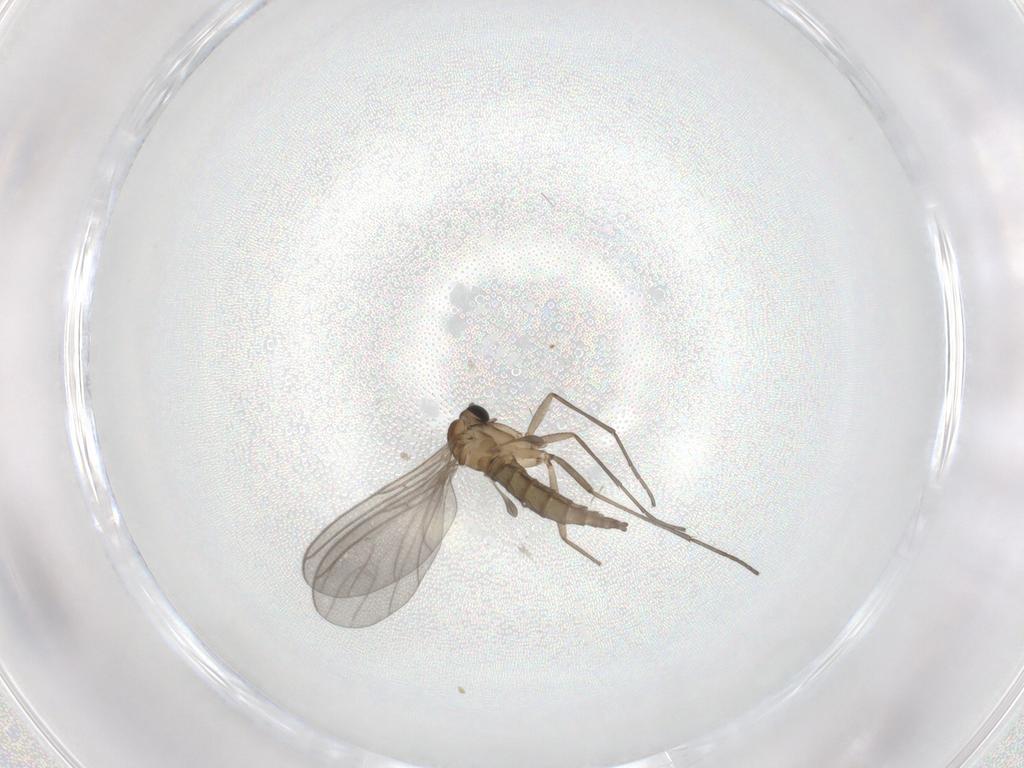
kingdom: Animalia
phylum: Arthropoda
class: Insecta
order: Diptera
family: Sciaridae
